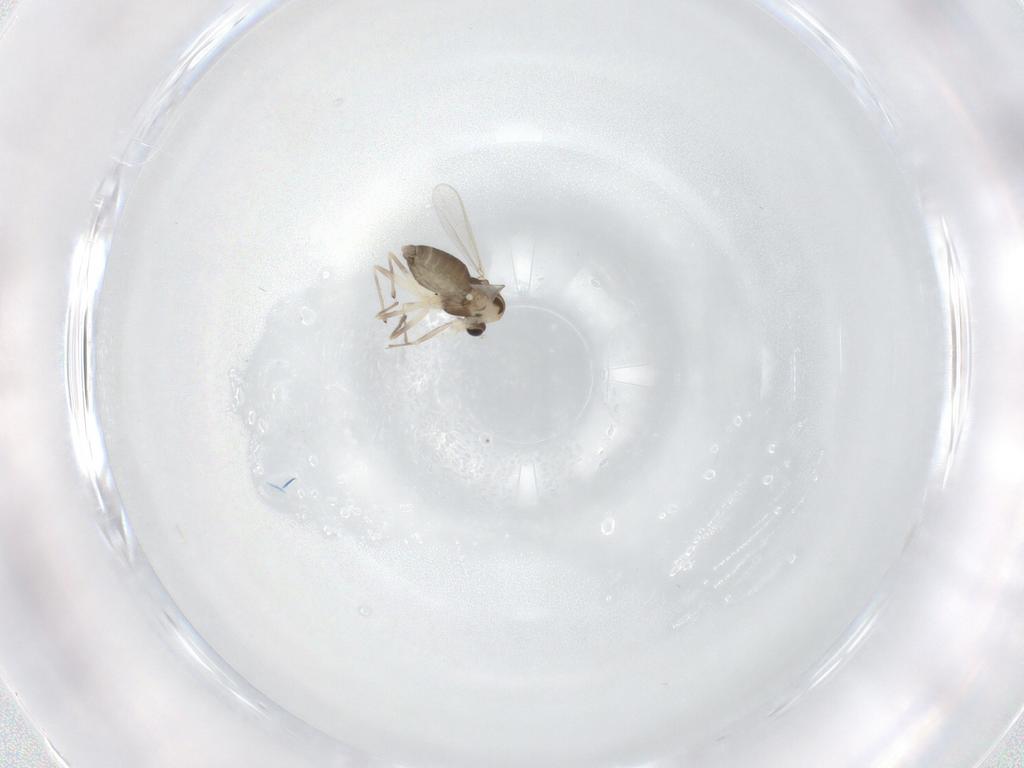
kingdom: Animalia
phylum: Arthropoda
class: Insecta
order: Diptera
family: Chironomidae
